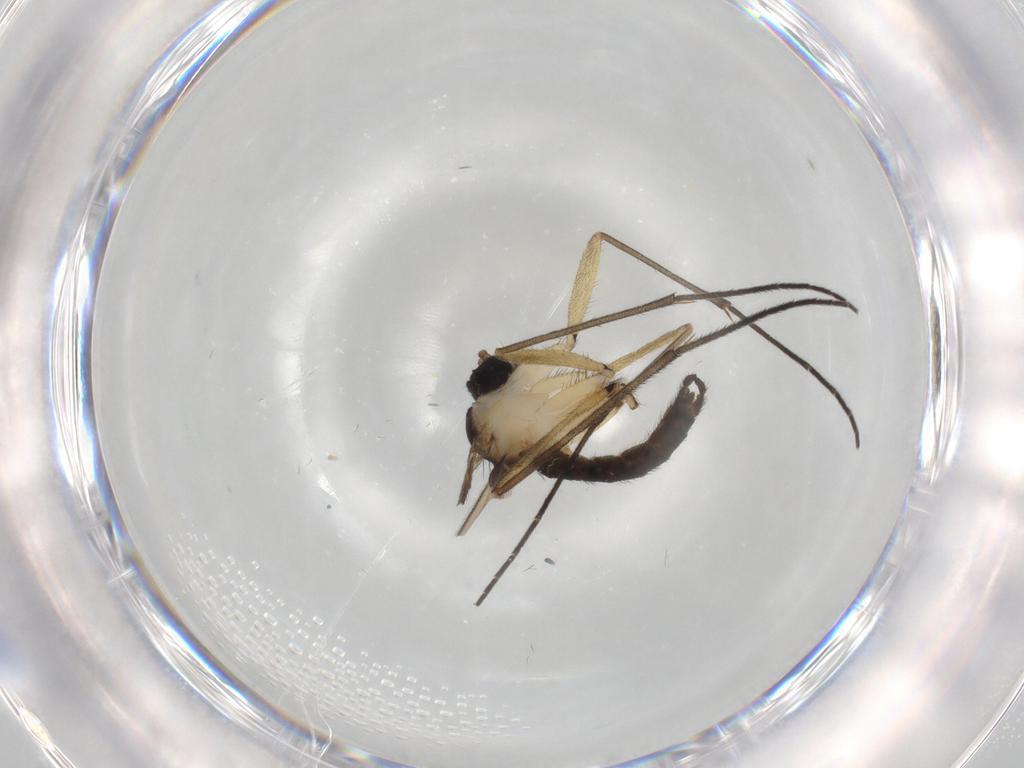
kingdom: Animalia
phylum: Arthropoda
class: Insecta
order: Diptera
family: Sciaridae
